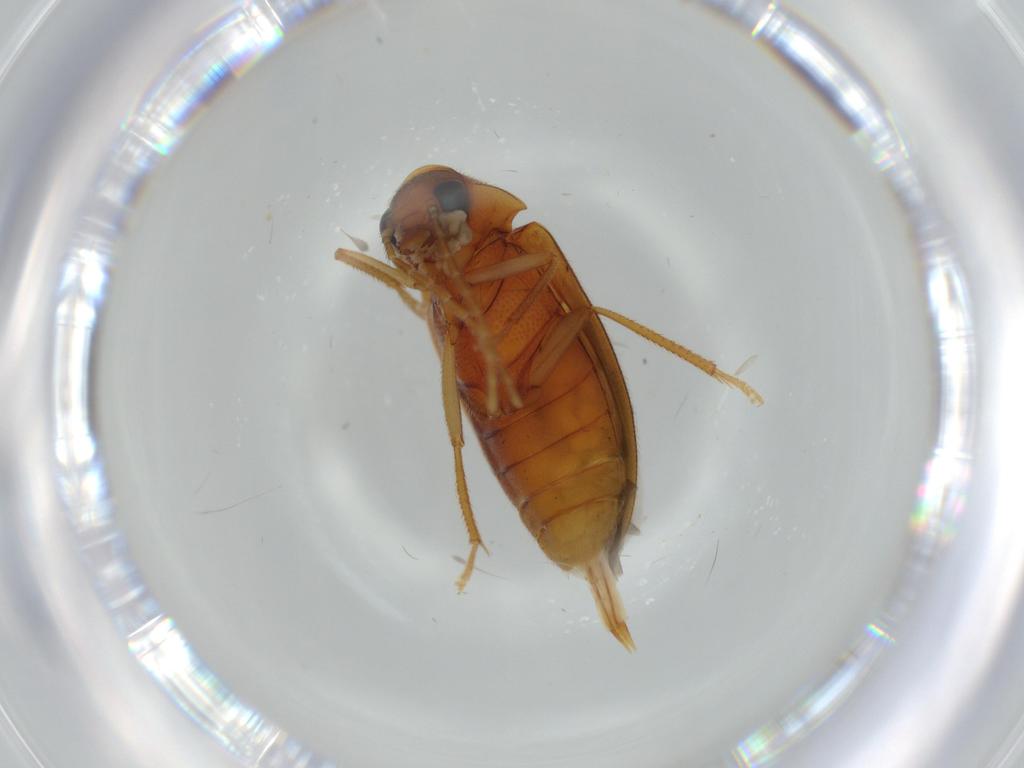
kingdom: Animalia
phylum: Arthropoda
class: Insecta
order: Coleoptera
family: Ptilodactylidae
